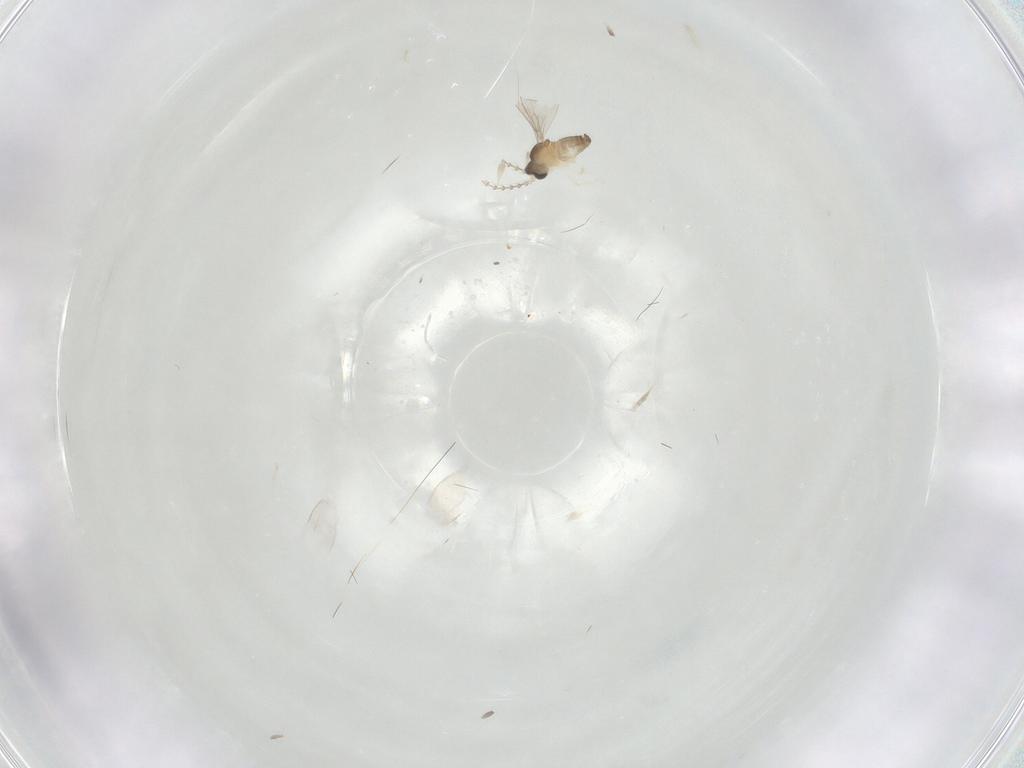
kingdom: Animalia
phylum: Arthropoda
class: Insecta
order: Diptera
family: Cecidomyiidae
